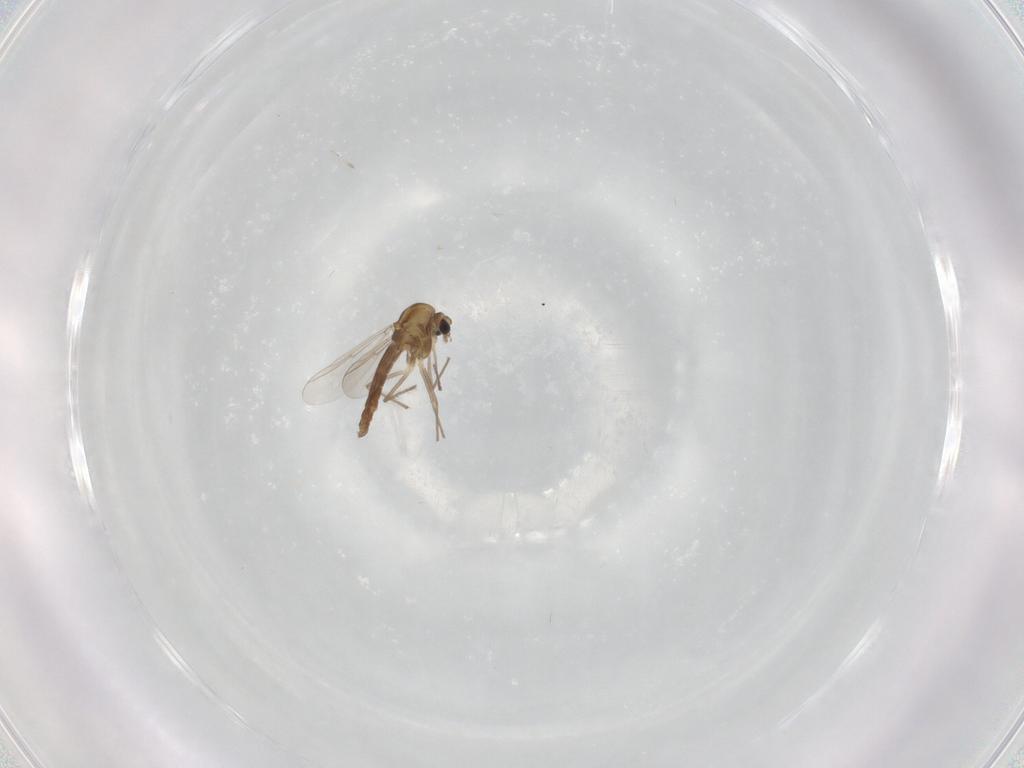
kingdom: Animalia
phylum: Arthropoda
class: Insecta
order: Diptera
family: Chironomidae
